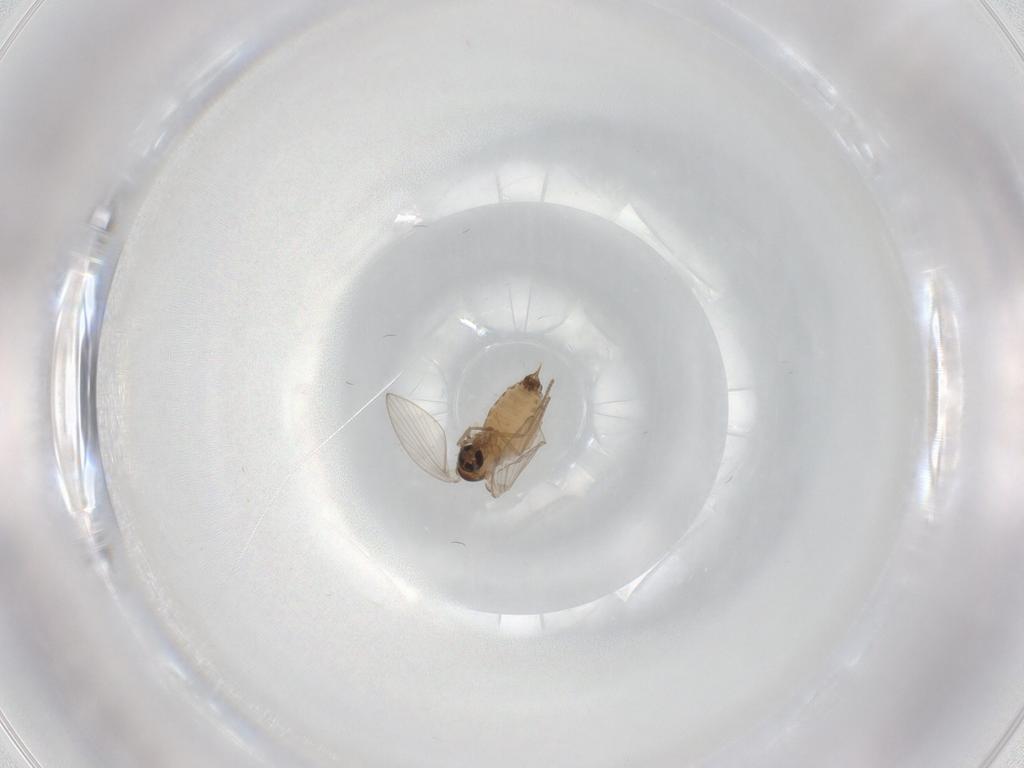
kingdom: Animalia
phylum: Arthropoda
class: Insecta
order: Diptera
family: Psychodidae
